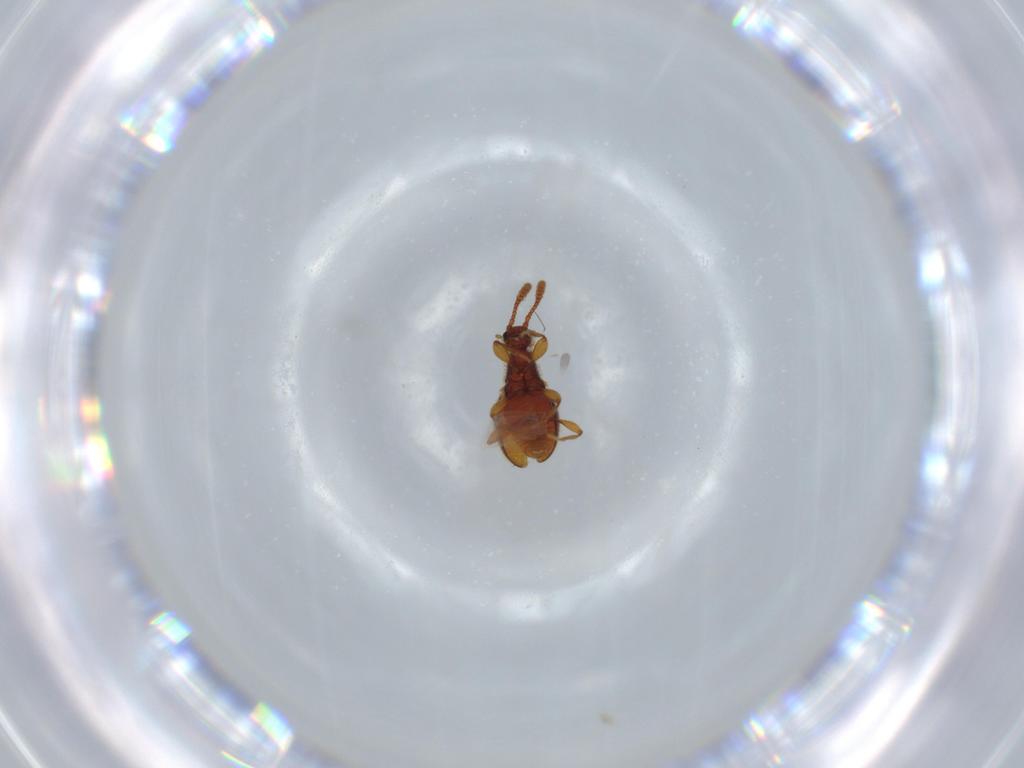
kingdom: Animalia
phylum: Arthropoda
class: Insecta
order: Coleoptera
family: Staphylinidae
